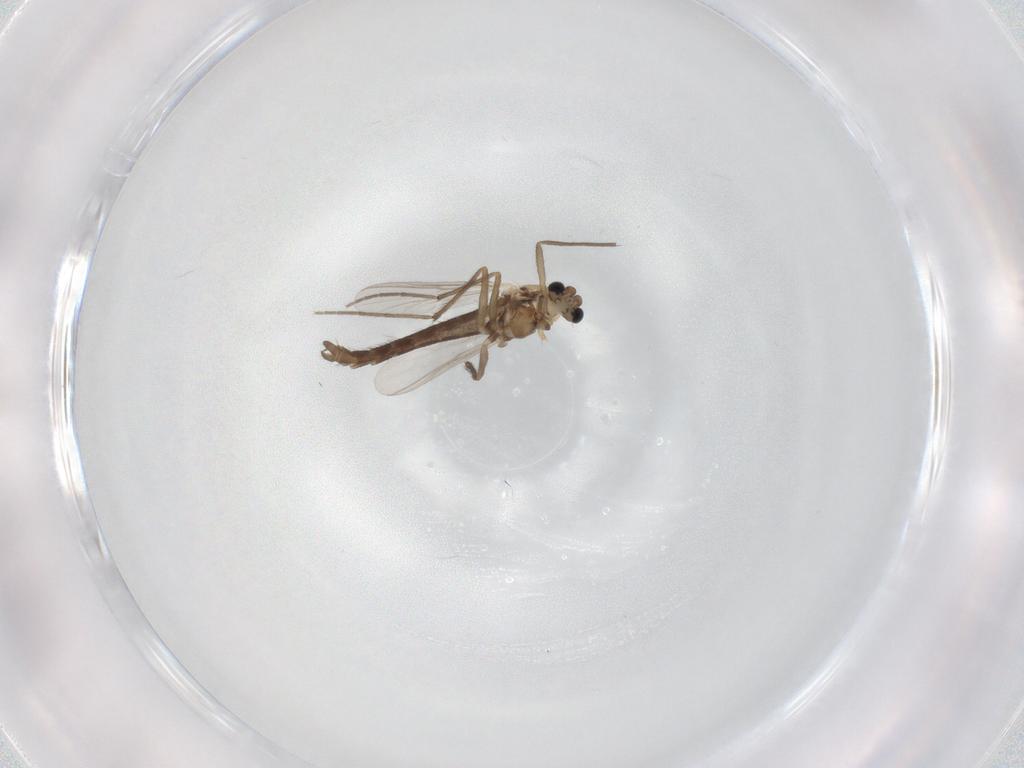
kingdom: Animalia
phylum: Arthropoda
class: Insecta
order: Diptera
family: Chironomidae
